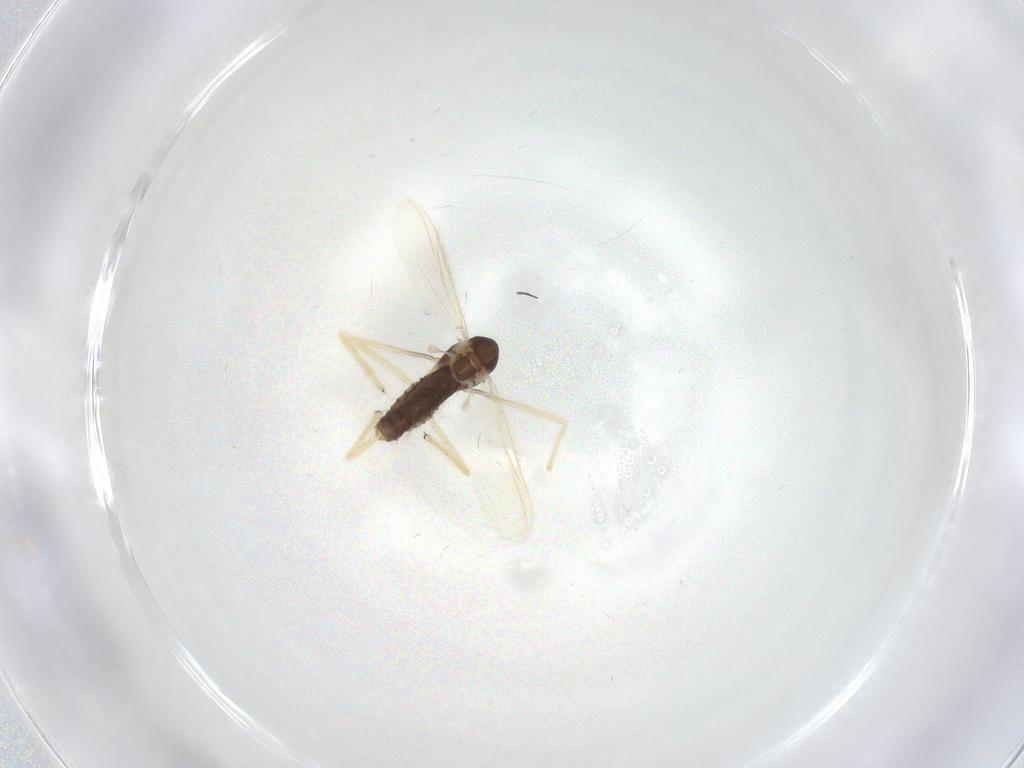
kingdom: Animalia
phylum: Arthropoda
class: Insecta
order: Diptera
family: Chironomidae
